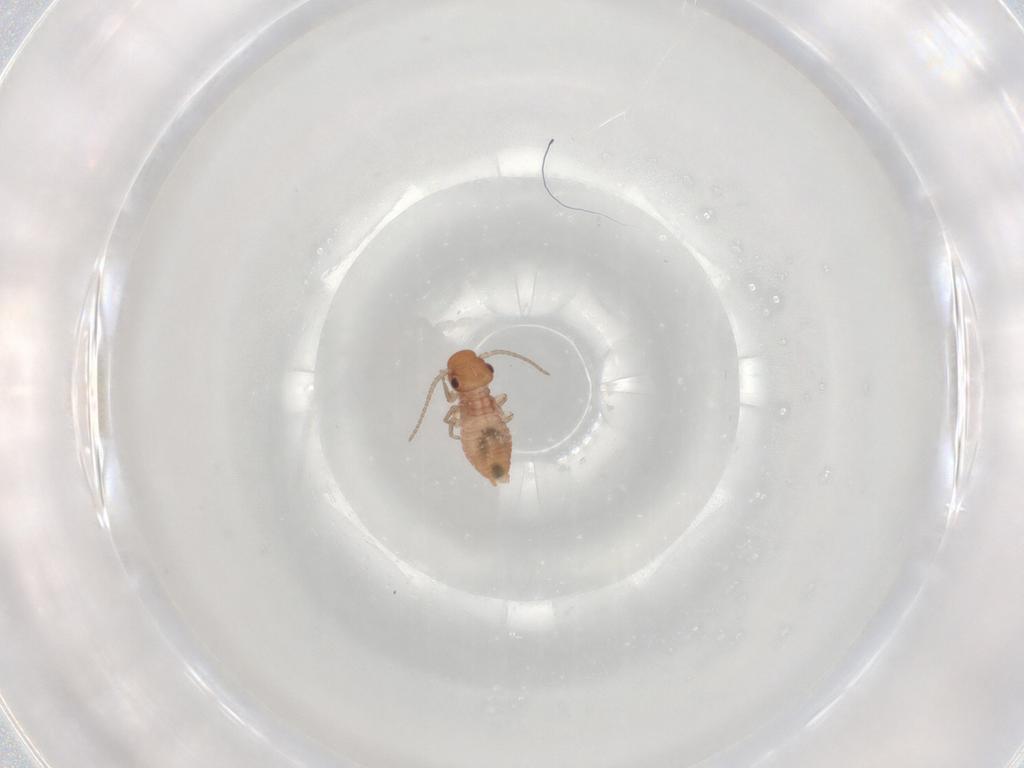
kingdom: Animalia
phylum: Arthropoda
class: Insecta
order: Psocodea
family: Caeciliusidae
